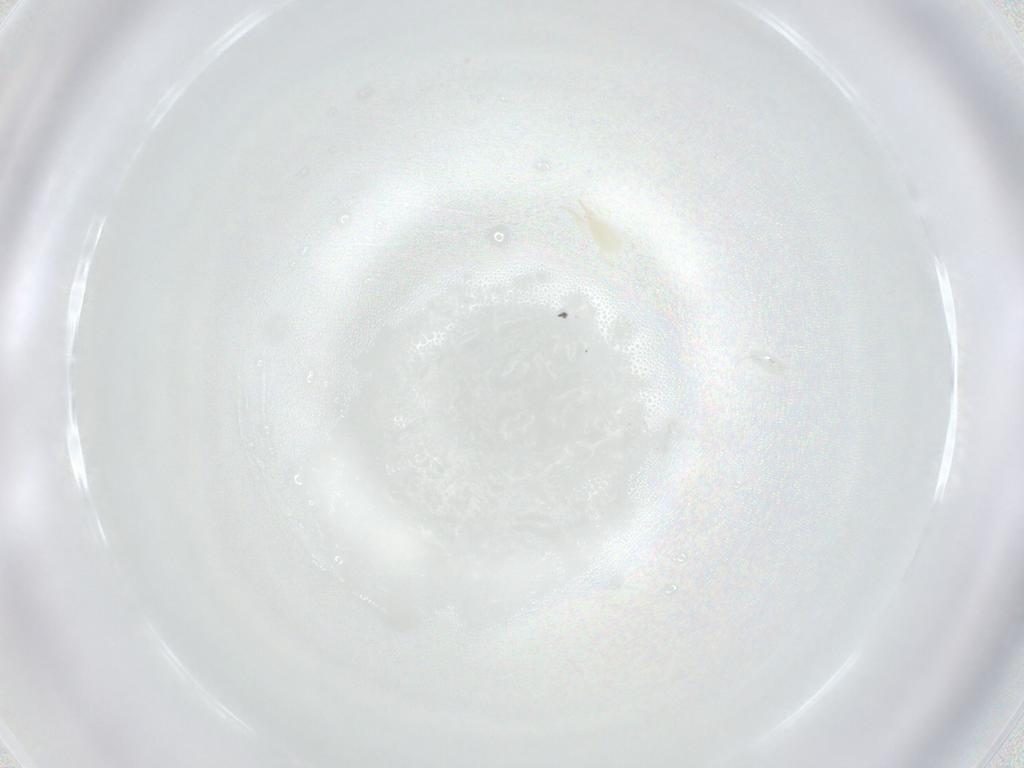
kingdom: Animalia
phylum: Arthropoda
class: Arachnida
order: Mesostigmata
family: Phytoseiidae
